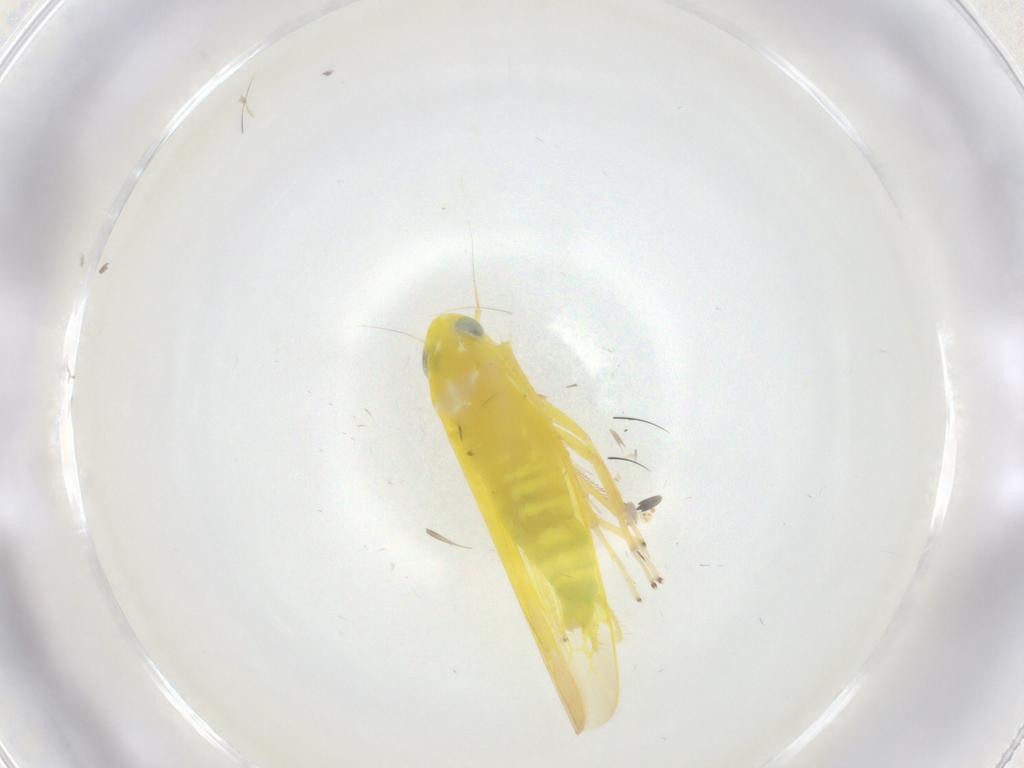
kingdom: Animalia
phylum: Arthropoda
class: Insecta
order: Hemiptera
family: Cicadellidae
